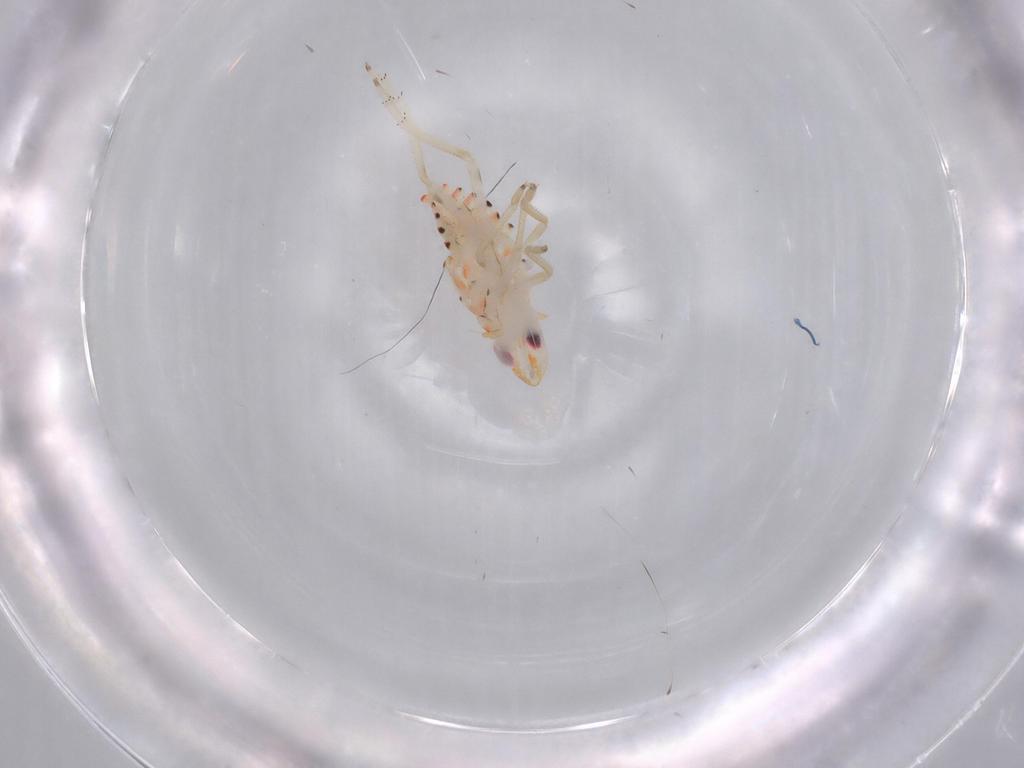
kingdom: Animalia
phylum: Arthropoda
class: Insecta
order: Hemiptera
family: Tropiduchidae
